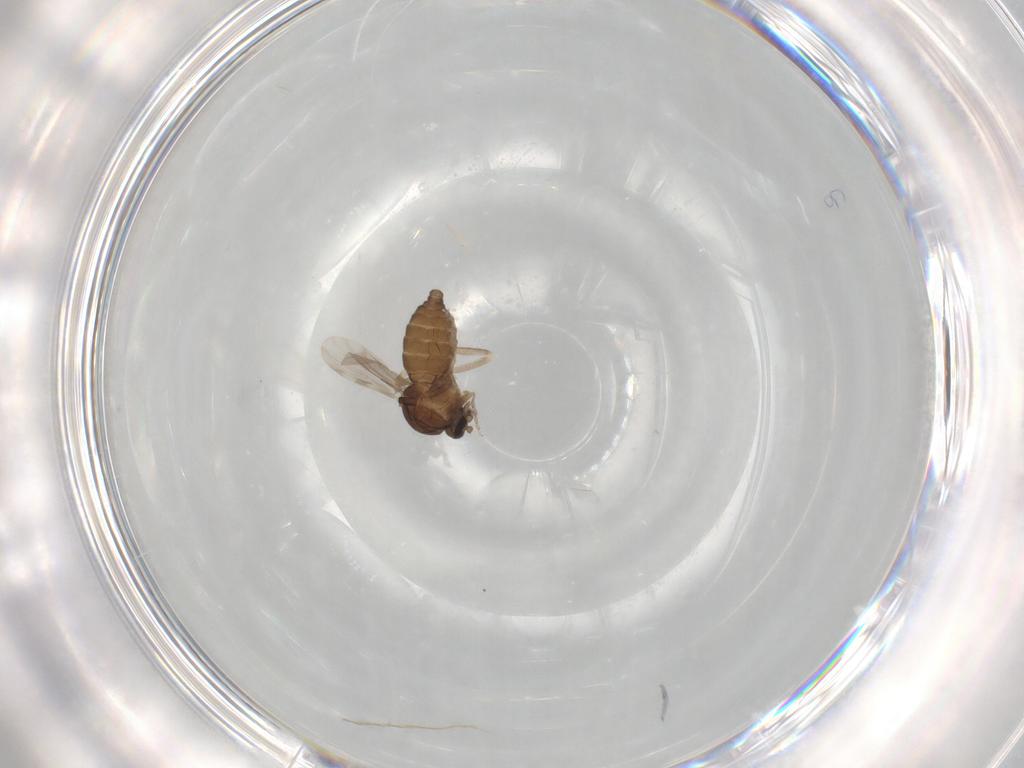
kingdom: Animalia
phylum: Arthropoda
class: Insecta
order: Diptera
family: Ceratopogonidae
